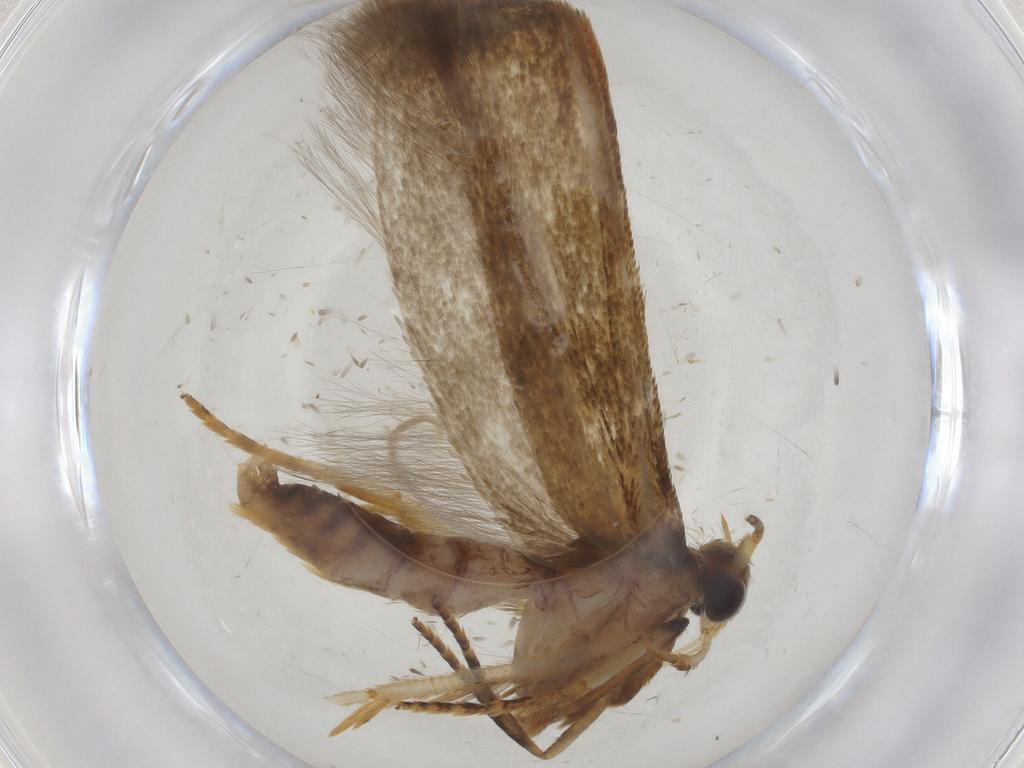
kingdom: Animalia
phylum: Arthropoda
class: Insecta
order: Lepidoptera
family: Blastobasidae
